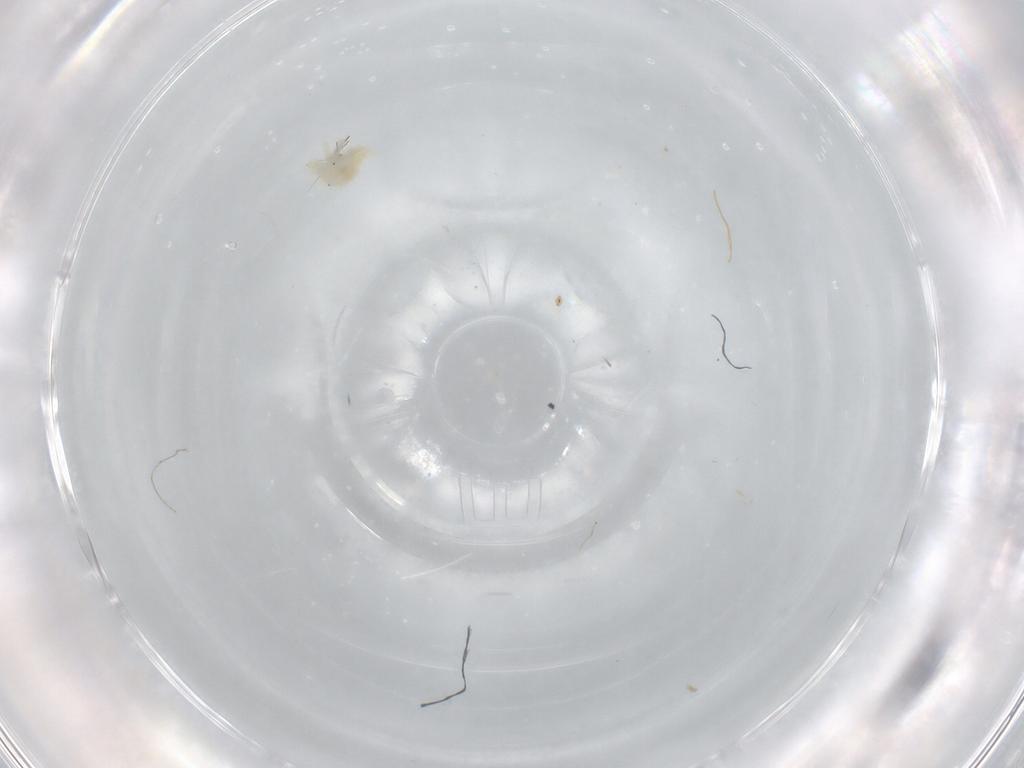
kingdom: Animalia
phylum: Arthropoda
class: Arachnida
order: Trombidiformes
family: Anystidae
